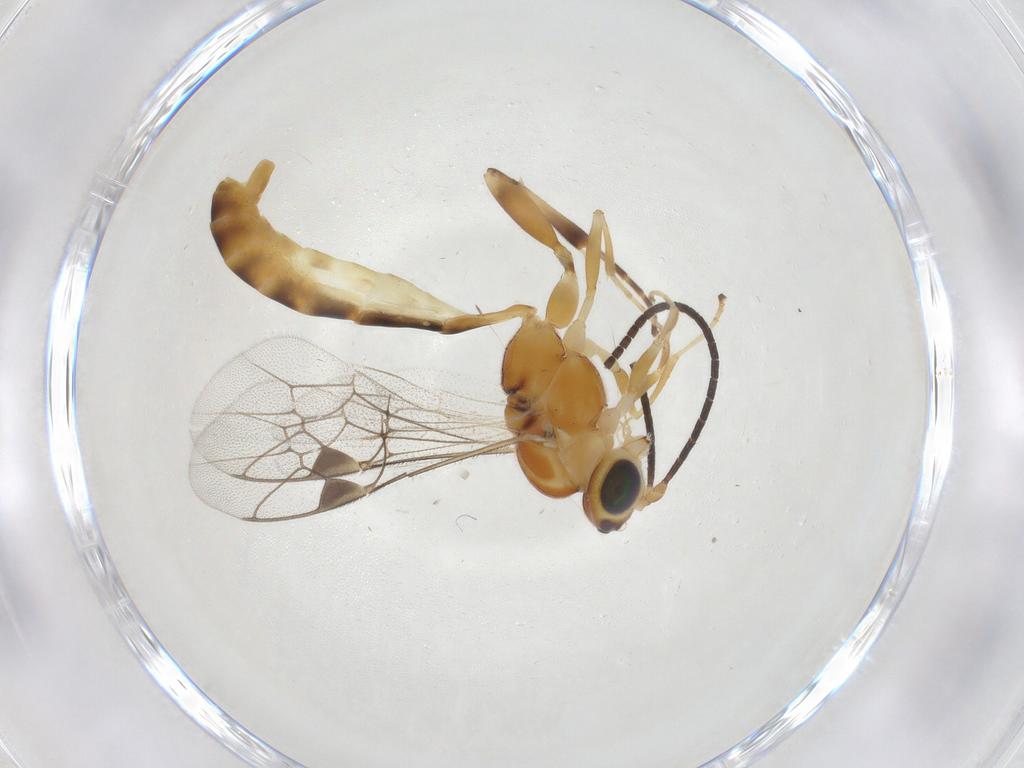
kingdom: Animalia
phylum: Arthropoda
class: Insecta
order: Hymenoptera
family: Ichneumonidae
